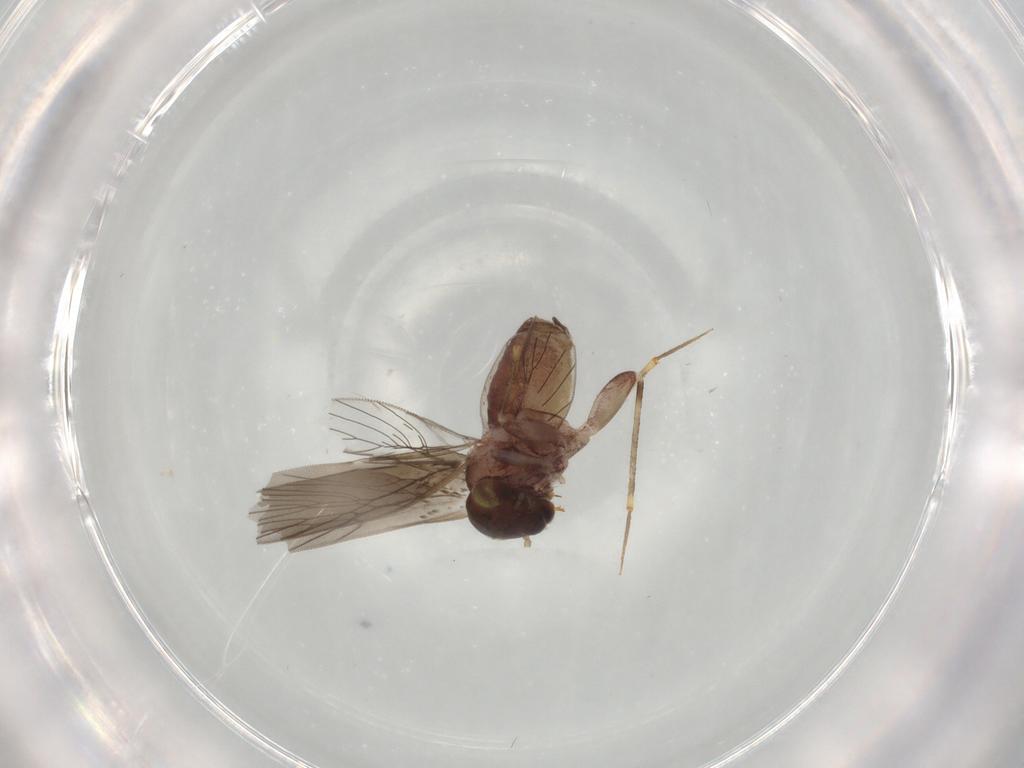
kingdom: Animalia
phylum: Arthropoda
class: Insecta
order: Psocodea
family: Lepidopsocidae
